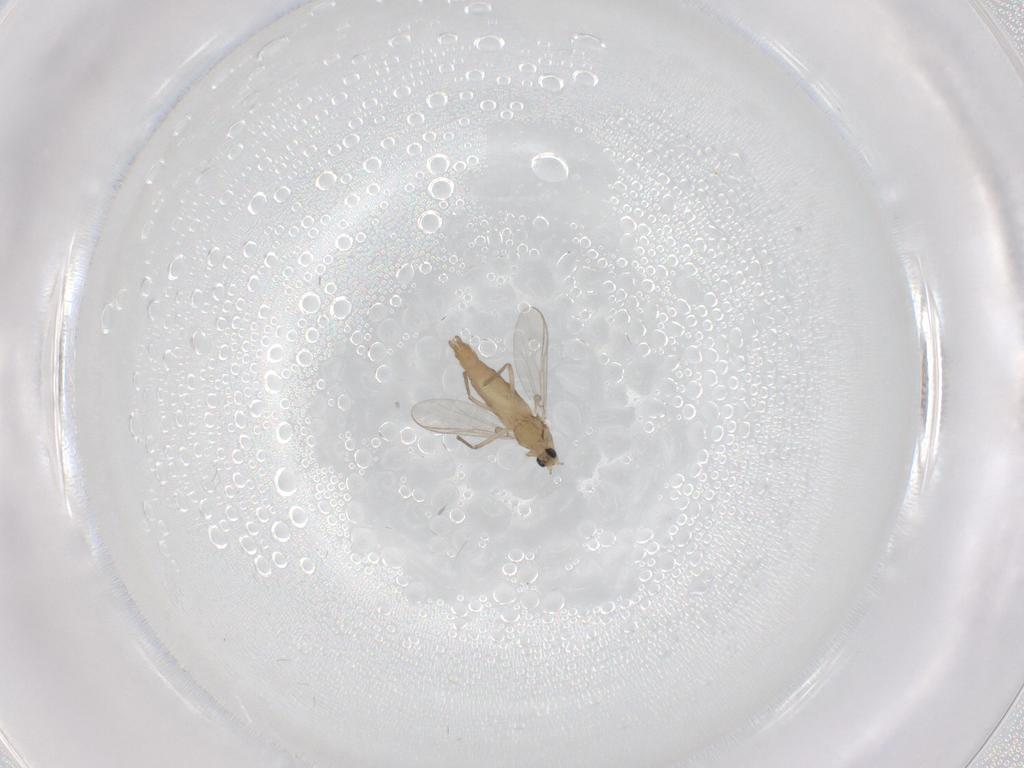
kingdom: Animalia
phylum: Arthropoda
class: Insecta
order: Diptera
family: Chironomidae
